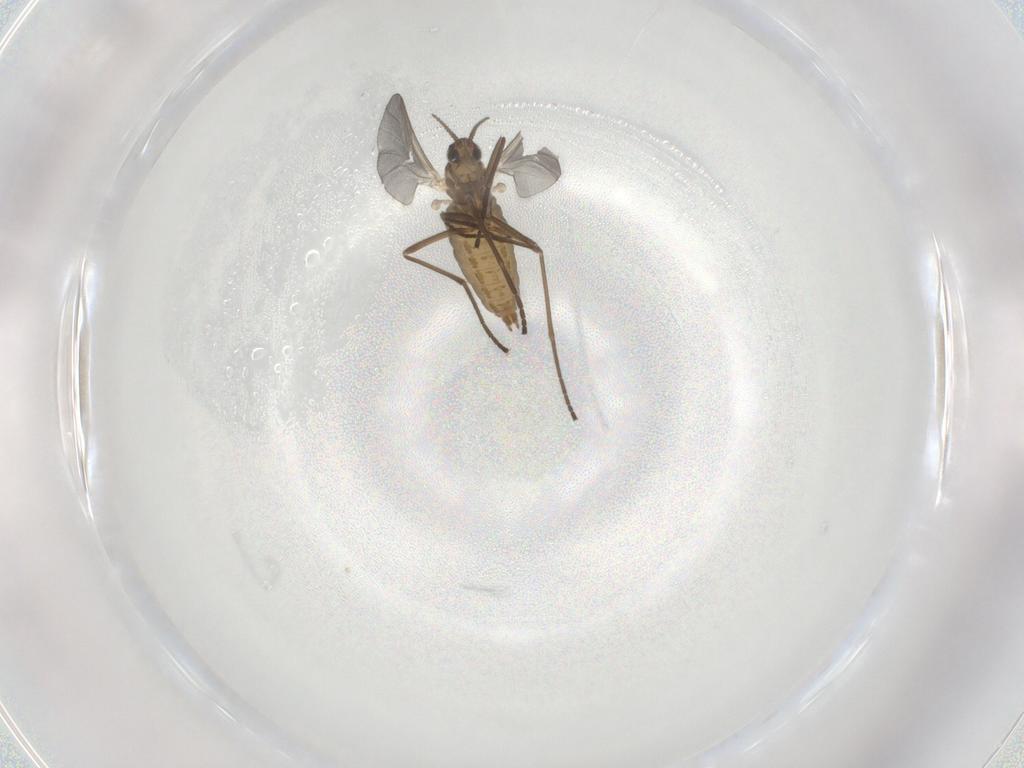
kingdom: Animalia
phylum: Arthropoda
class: Insecta
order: Diptera
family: Cecidomyiidae
